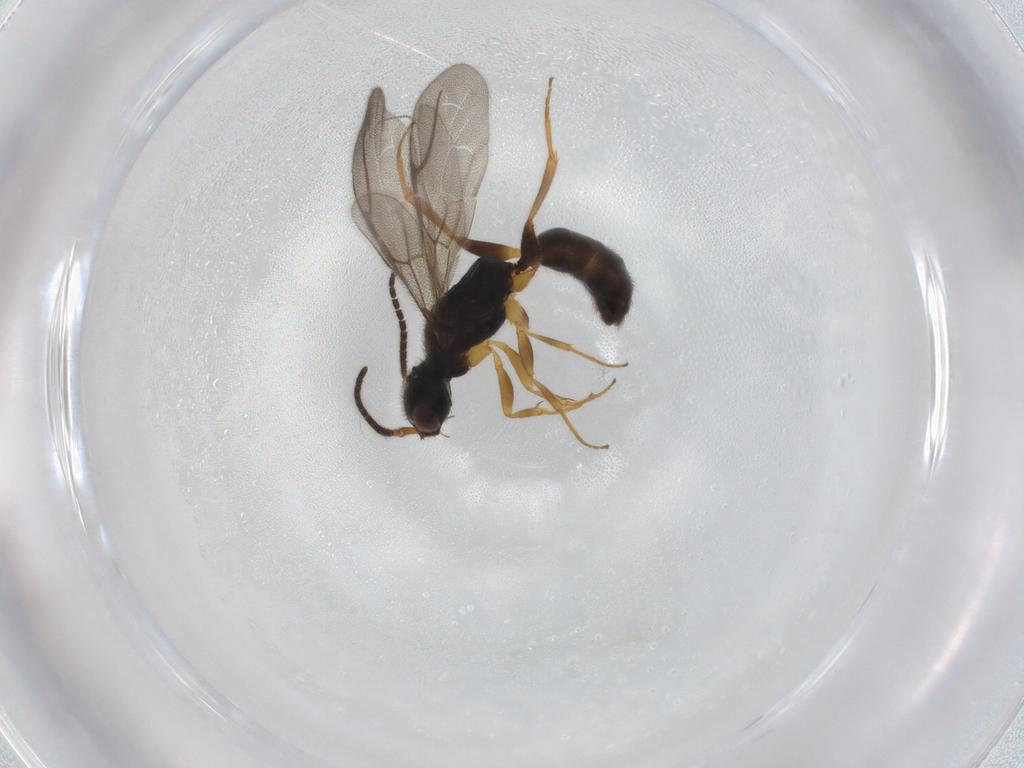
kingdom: Animalia
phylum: Arthropoda
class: Insecta
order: Hymenoptera
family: Bethylidae
